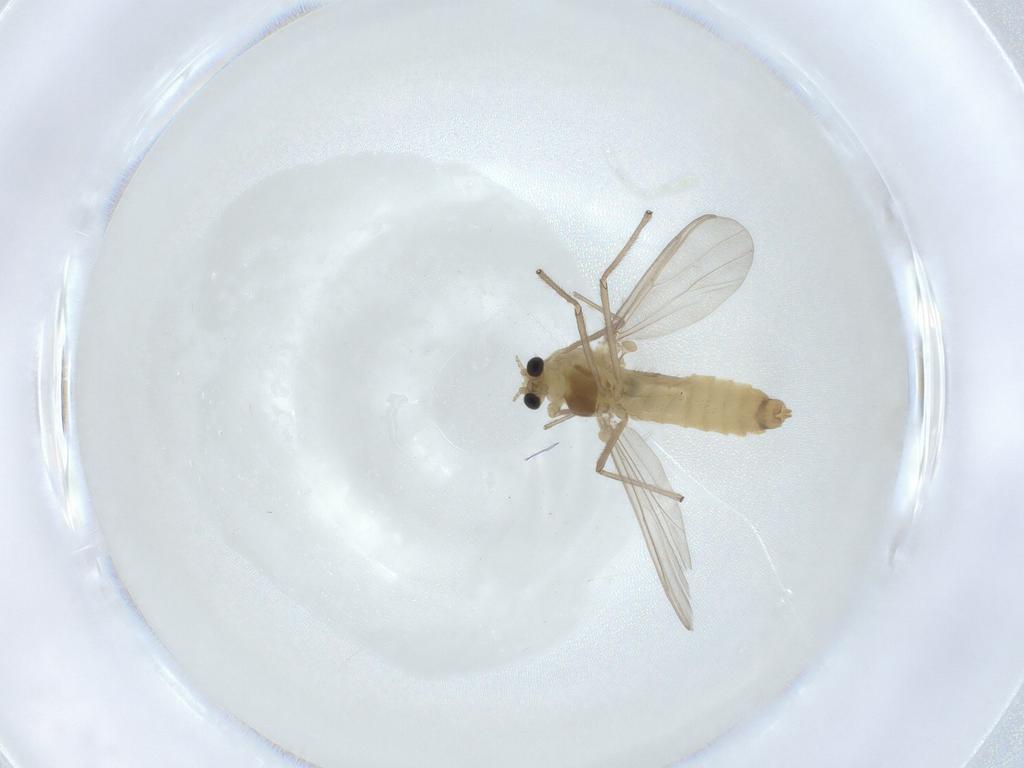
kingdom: Animalia
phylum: Arthropoda
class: Insecta
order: Diptera
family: Chironomidae
